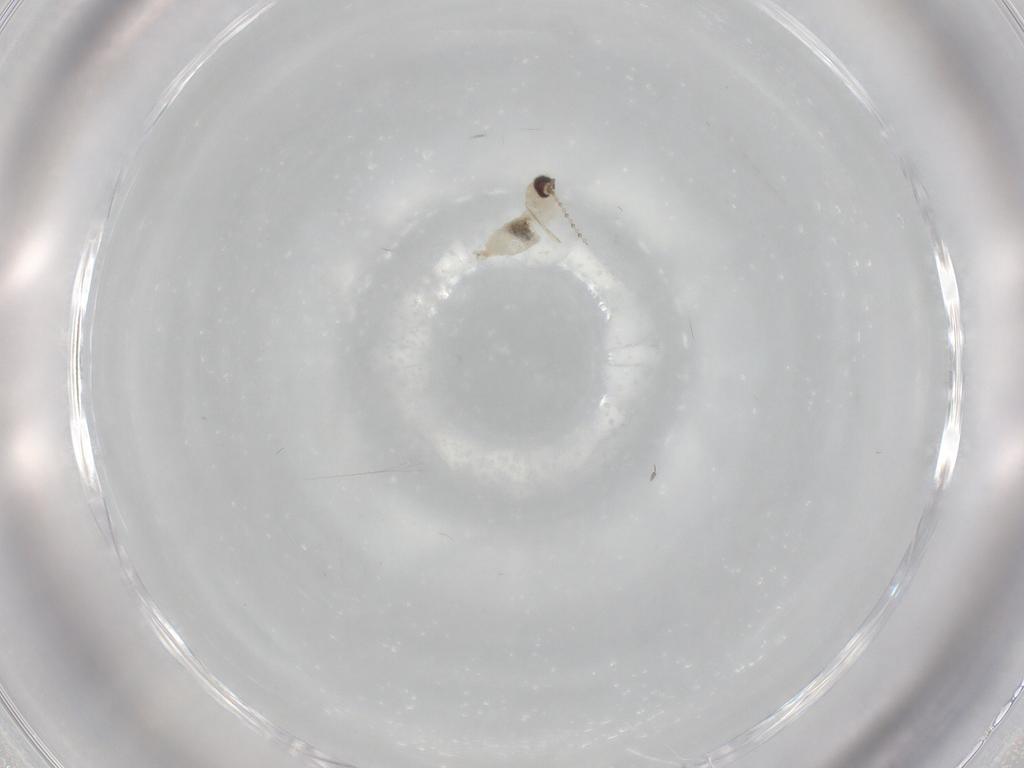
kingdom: Animalia
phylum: Arthropoda
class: Insecta
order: Diptera
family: Cecidomyiidae
